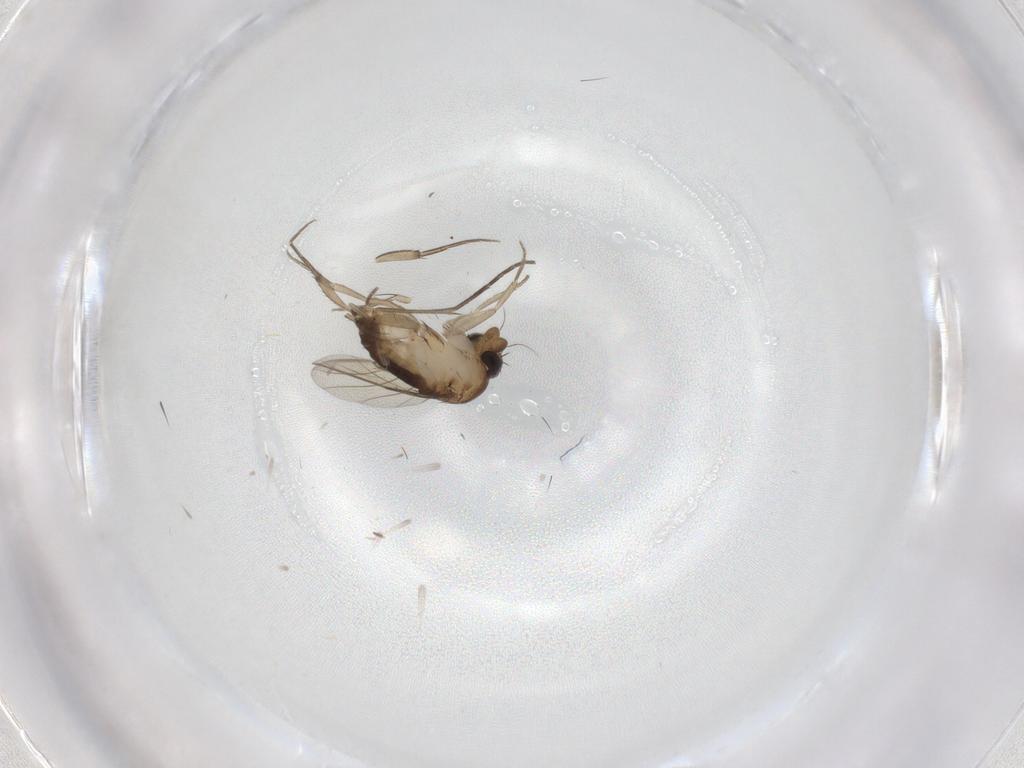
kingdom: Animalia
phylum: Arthropoda
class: Insecta
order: Diptera
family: Phoridae
